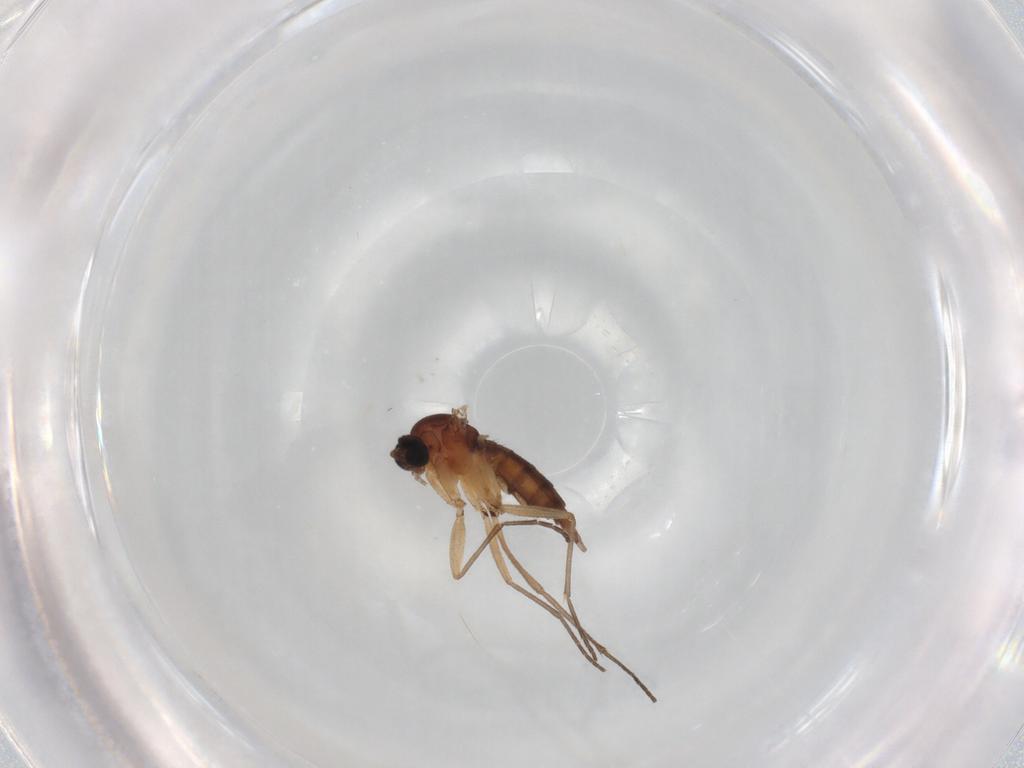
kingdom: Animalia
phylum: Arthropoda
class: Insecta
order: Diptera
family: Sciaridae
